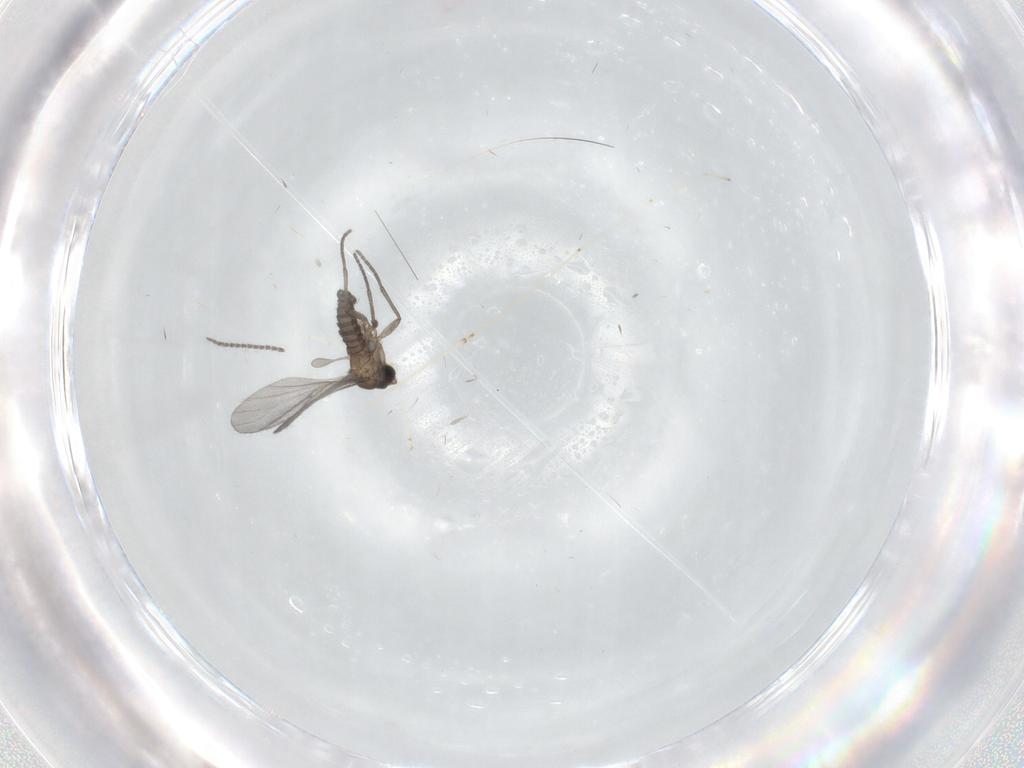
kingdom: Animalia
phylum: Arthropoda
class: Insecta
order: Diptera
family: Sciaridae
